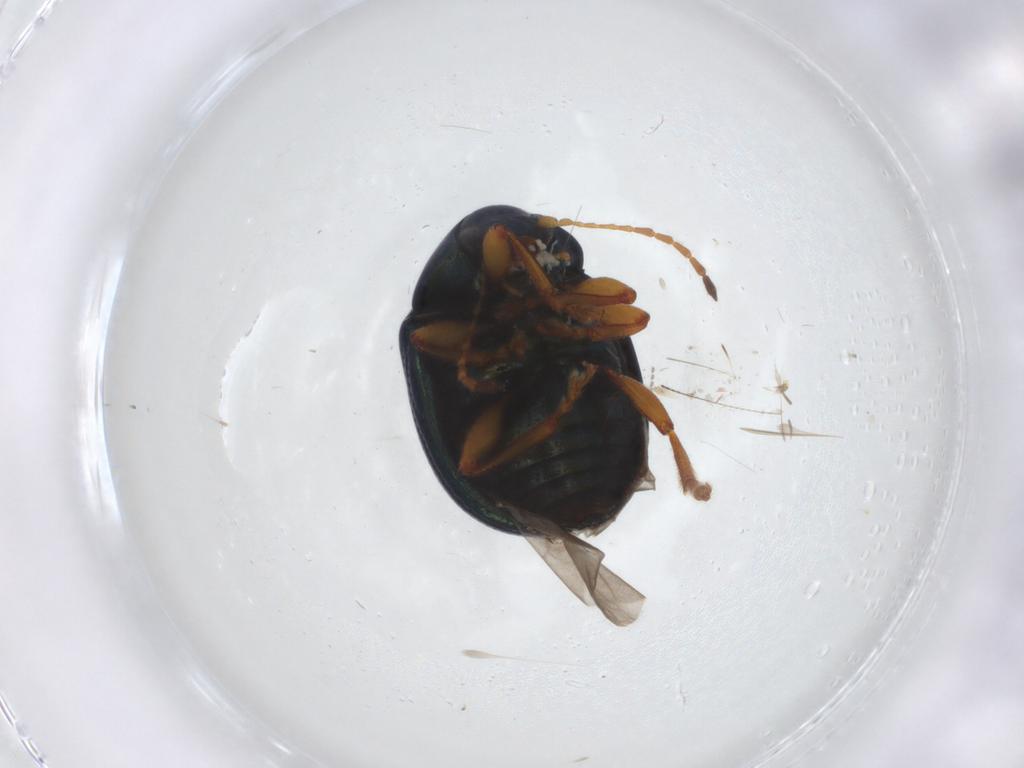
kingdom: Animalia
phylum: Arthropoda
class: Insecta
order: Coleoptera
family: Chrysomelidae
